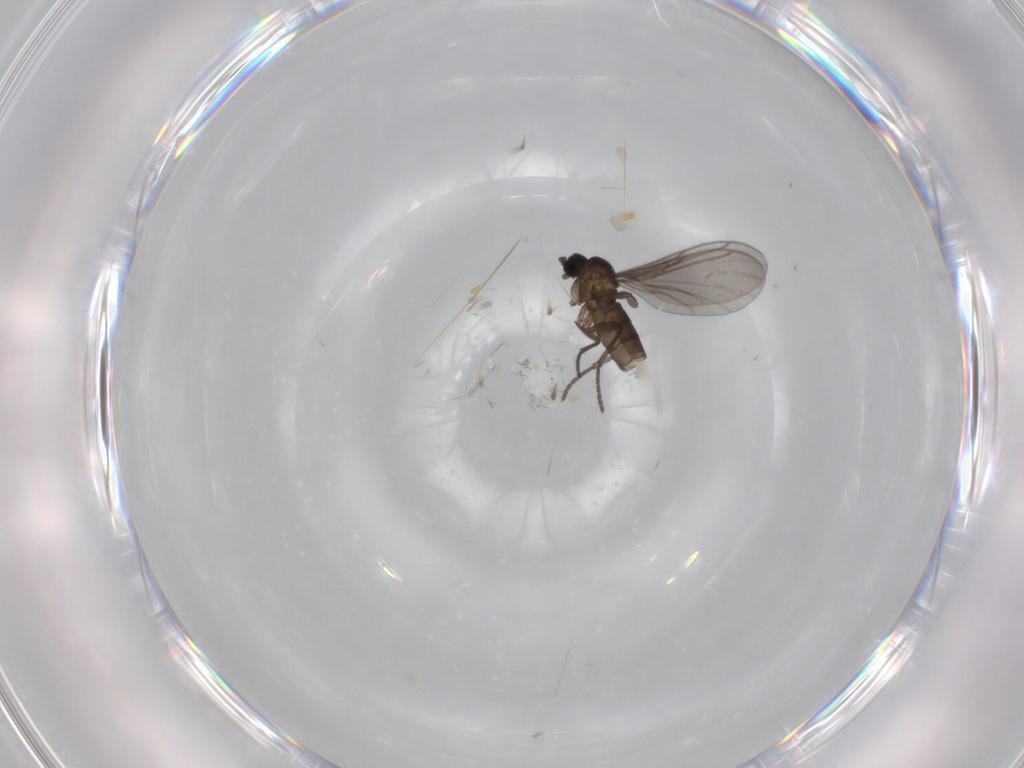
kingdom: Animalia
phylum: Arthropoda
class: Insecta
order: Diptera
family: Sciaridae
